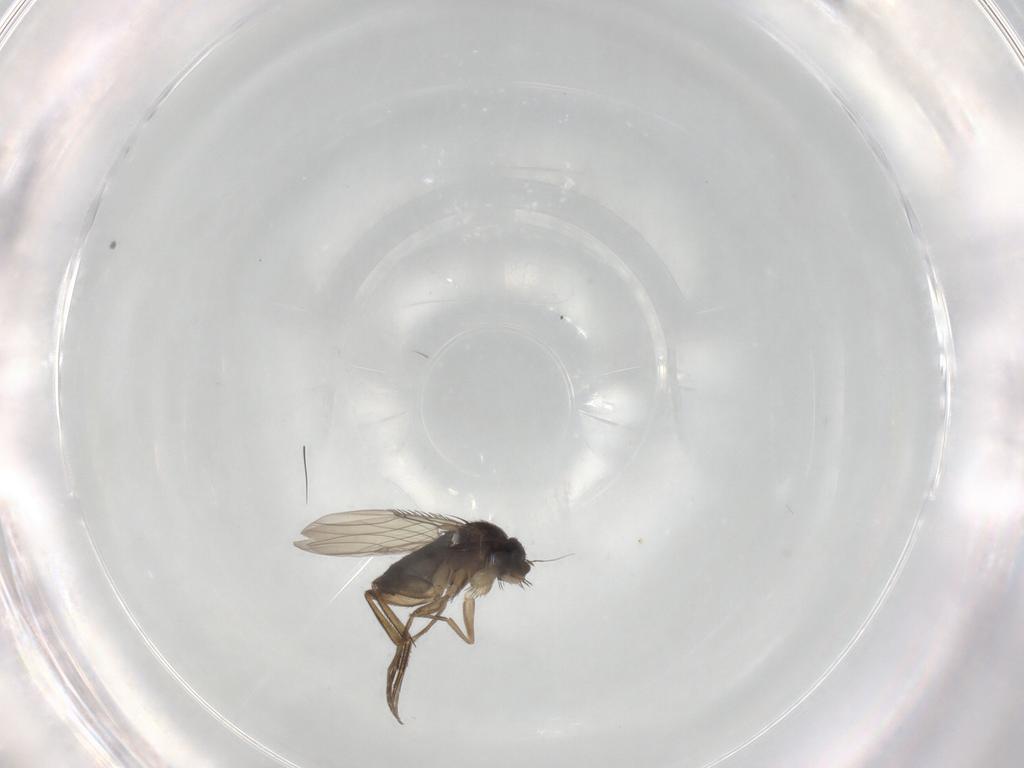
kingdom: Animalia
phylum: Arthropoda
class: Insecta
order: Diptera
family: Phoridae
